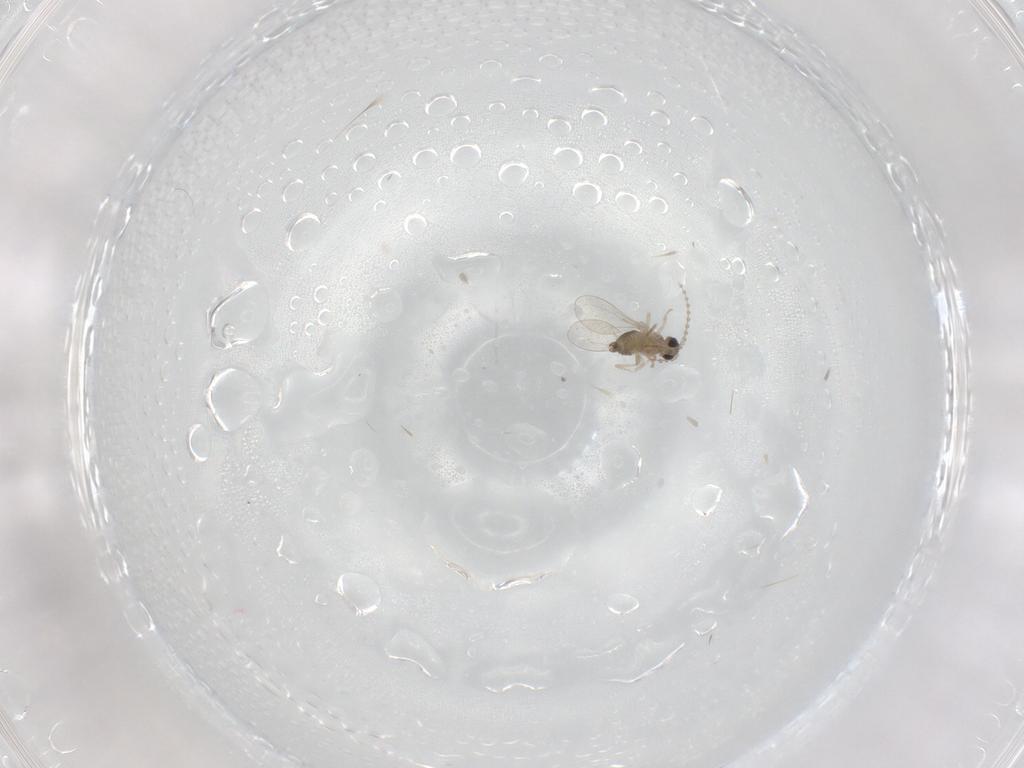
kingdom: Animalia
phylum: Arthropoda
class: Insecta
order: Diptera
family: Cecidomyiidae
